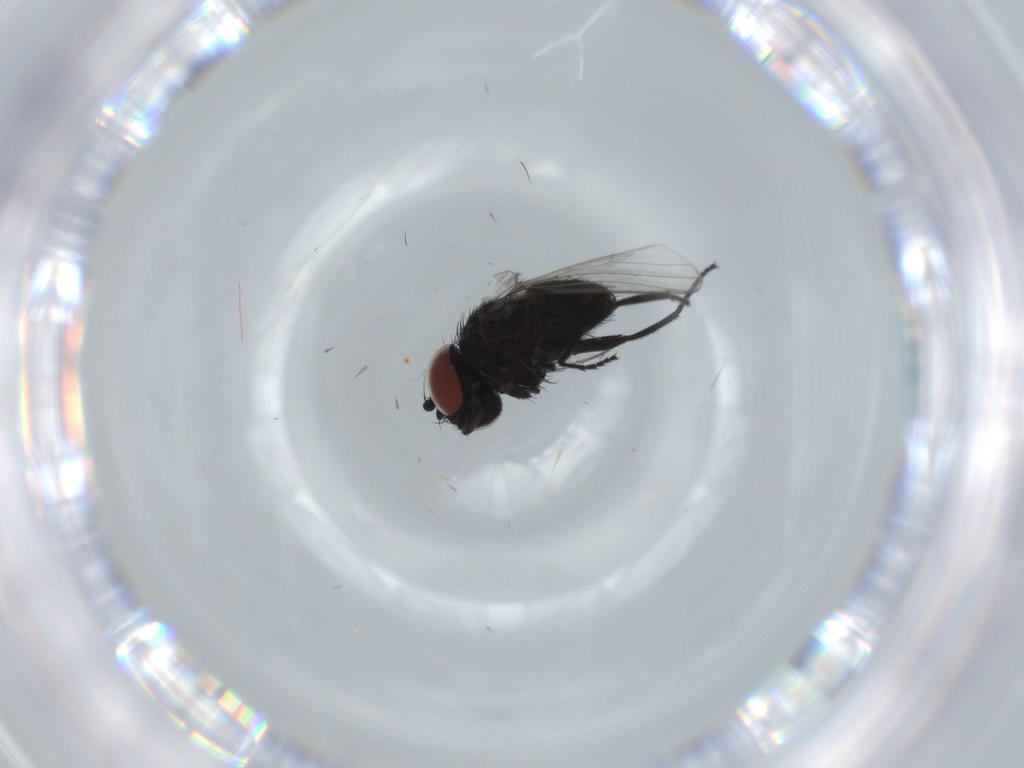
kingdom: Animalia
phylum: Arthropoda
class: Insecta
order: Diptera
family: Milichiidae
